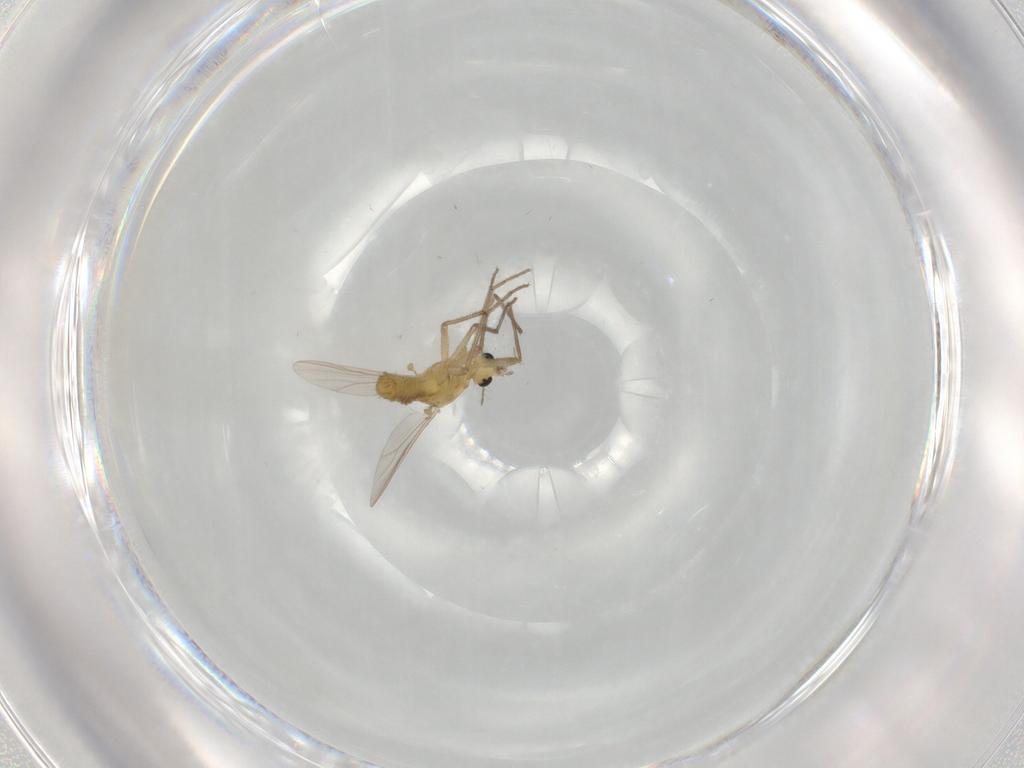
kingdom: Animalia
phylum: Arthropoda
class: Insecta
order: Diptera
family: Chironomidae
